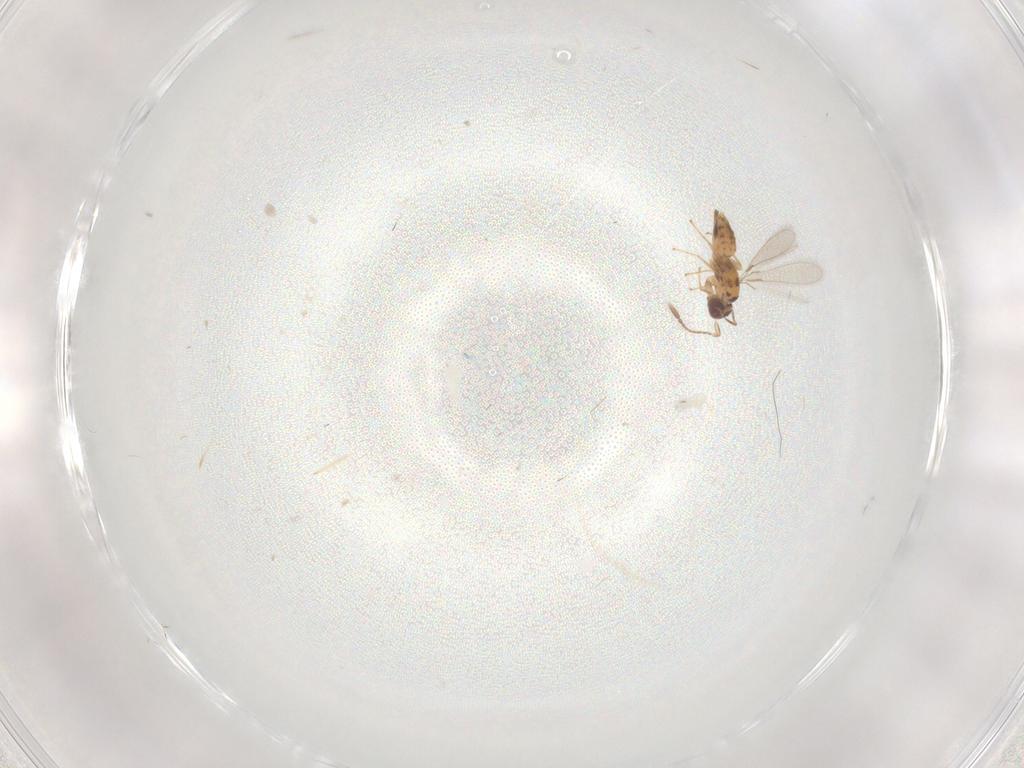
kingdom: Animalia
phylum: Arthropoda
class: Insecta
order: Hymenoptera
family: Mymaridae
